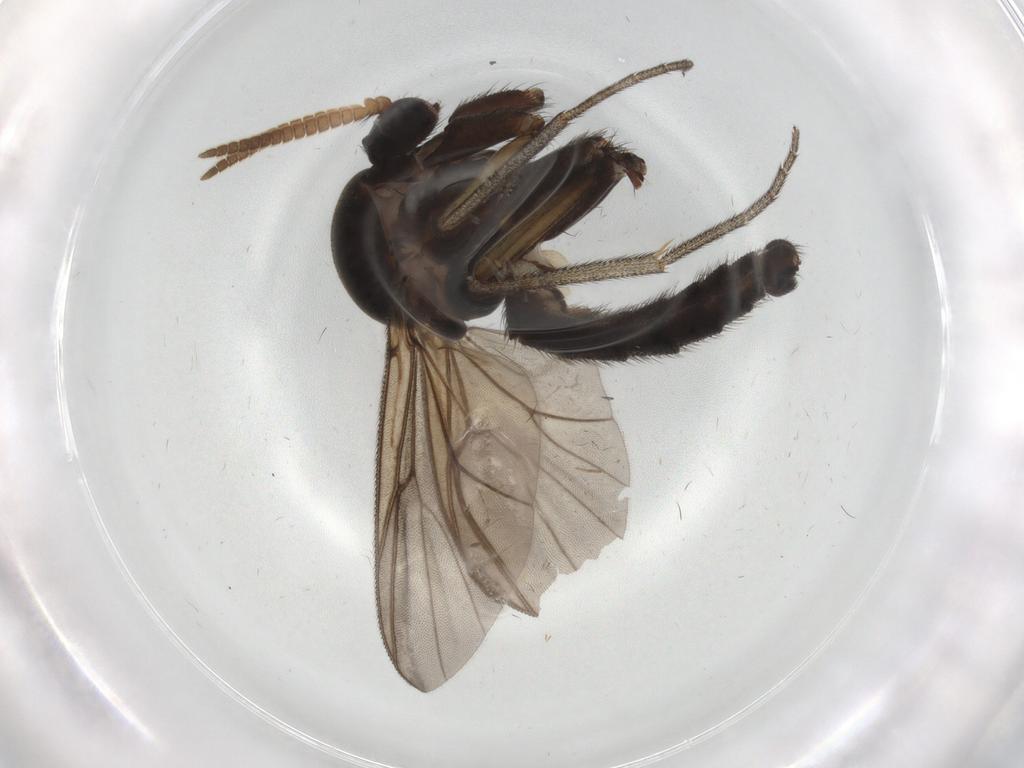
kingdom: Animalia
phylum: Arthropoda
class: Insecta
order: Diptera
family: Mycetophilidae
